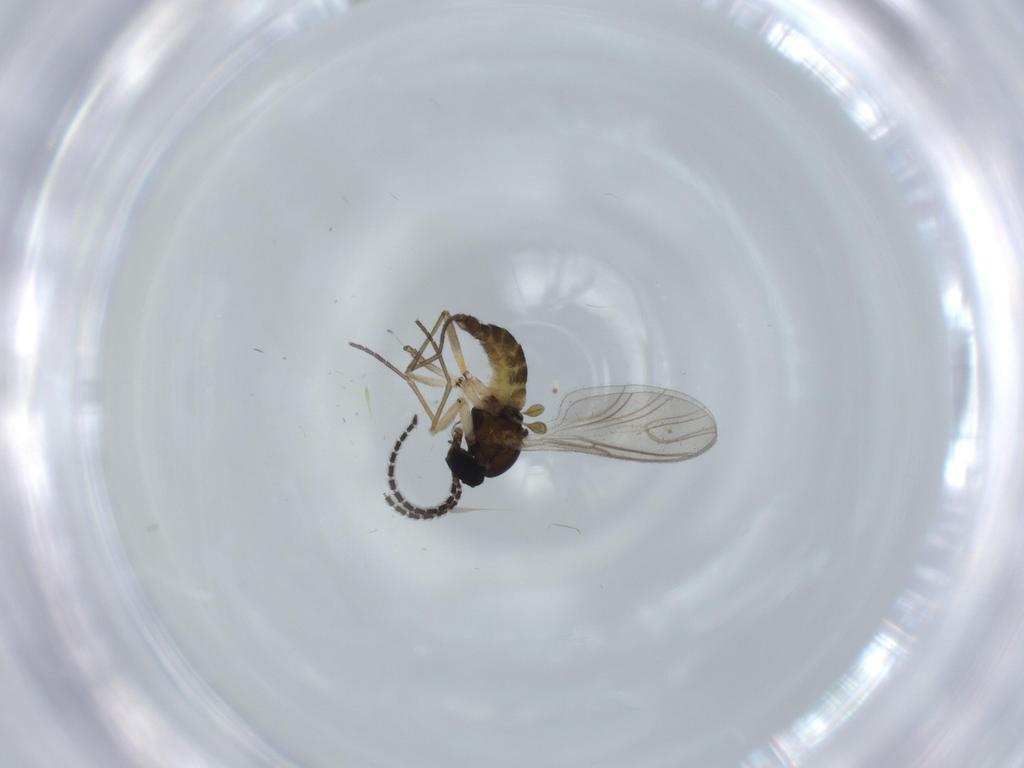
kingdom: Animalia
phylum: Arthropoda
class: Insecta
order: Diptera
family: Sciaridae
